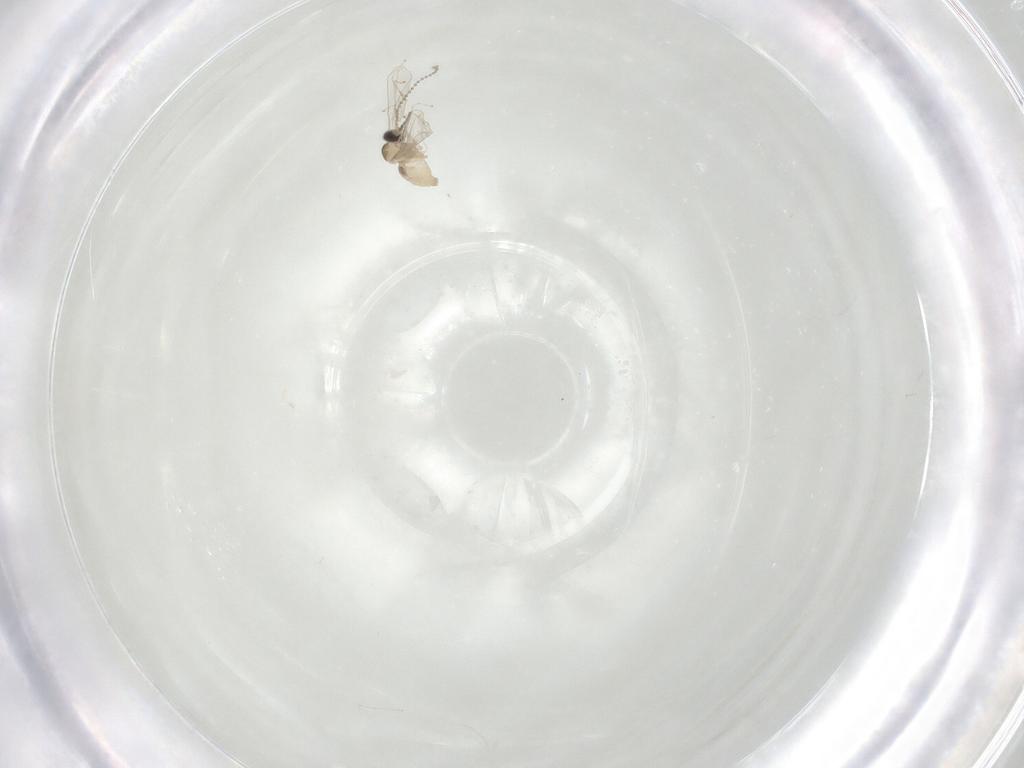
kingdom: Animalia
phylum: Arthropoda
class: Insecta
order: Diptera
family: Cecidomyiidae
